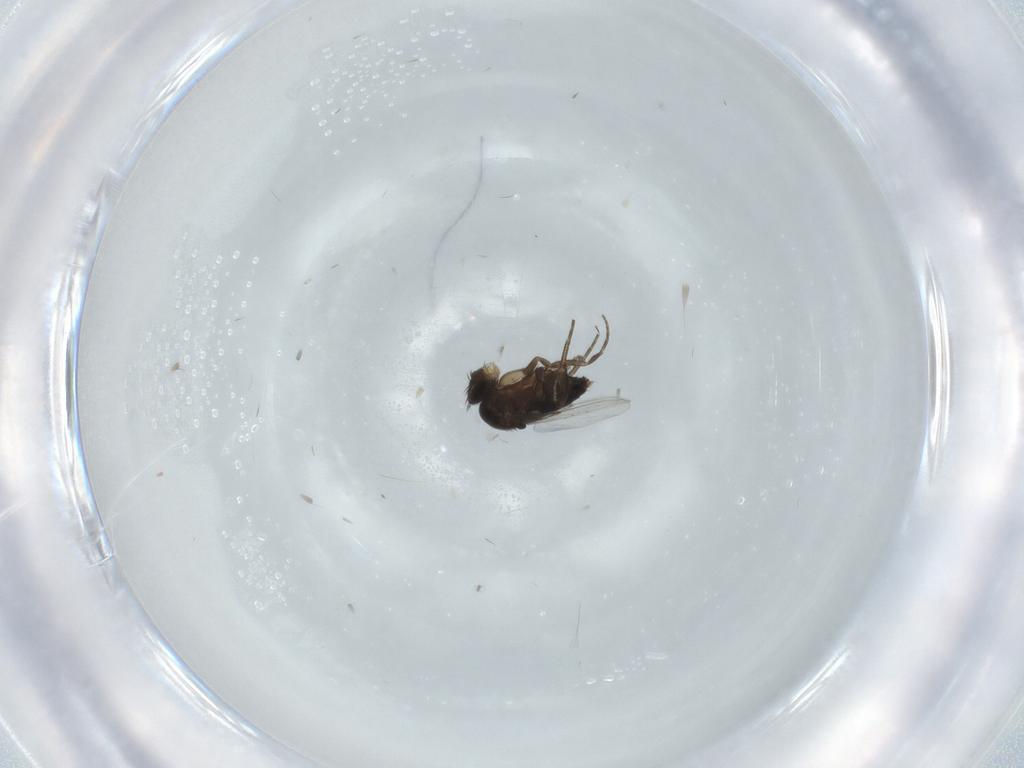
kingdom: Animalia
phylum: Arthropoda
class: Insecta
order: Diptera
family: Phoridae
